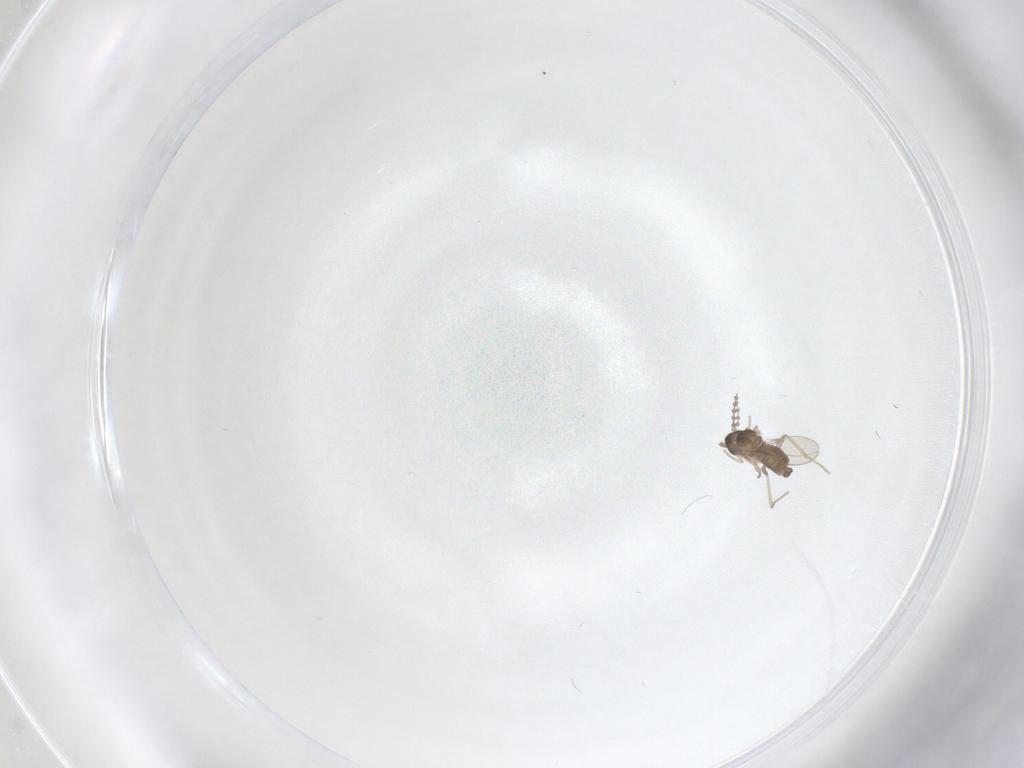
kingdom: Animalia
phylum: Arthropoda
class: Insecta
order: Diptera
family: Cecidomyiidae
